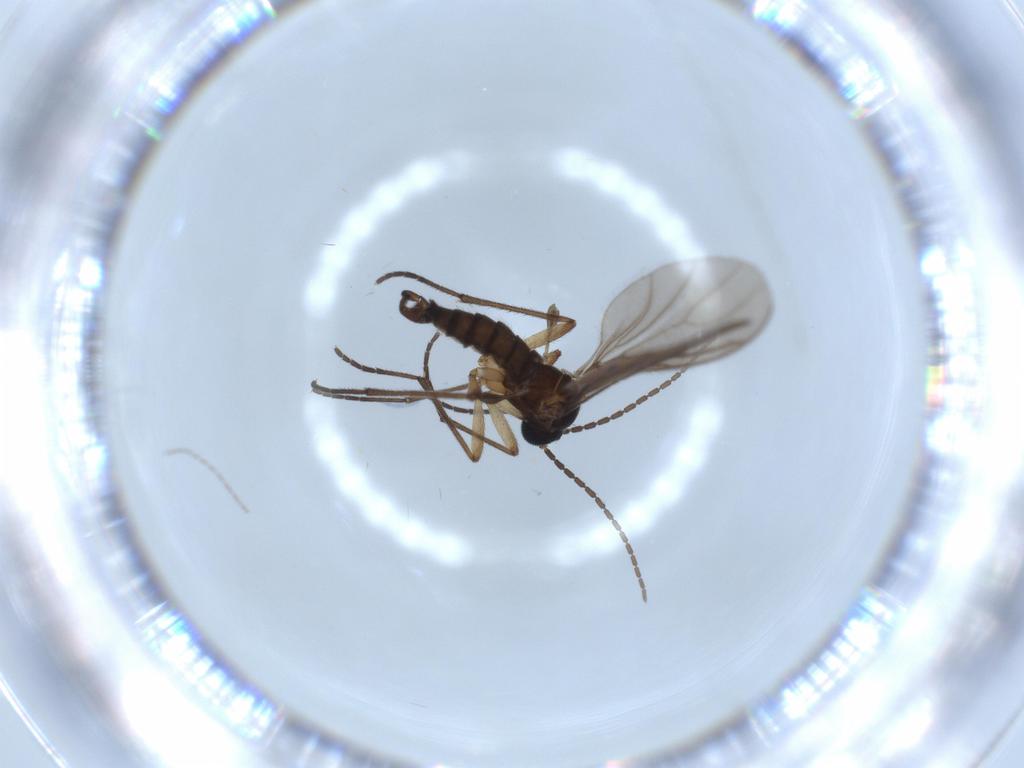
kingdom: Animalia
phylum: Arthropoda
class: Insecta
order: Diptera
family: Sciaridae
